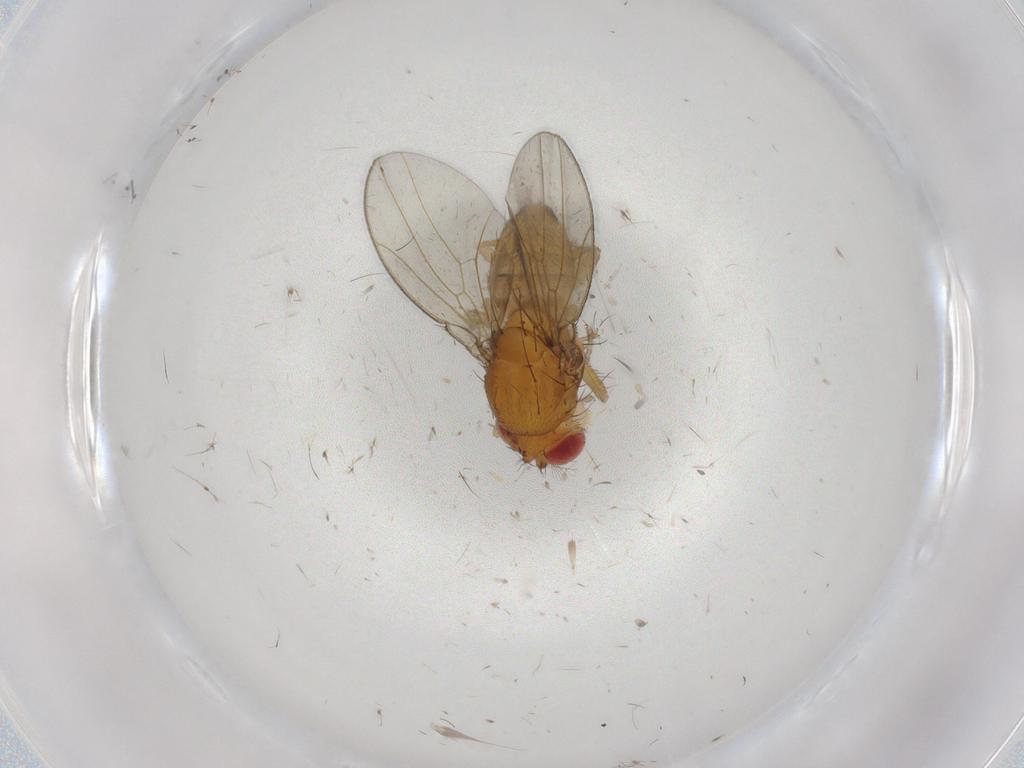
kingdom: Animalia
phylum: Arthropoda
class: Insecta
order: Diptera
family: Drosophilidae
